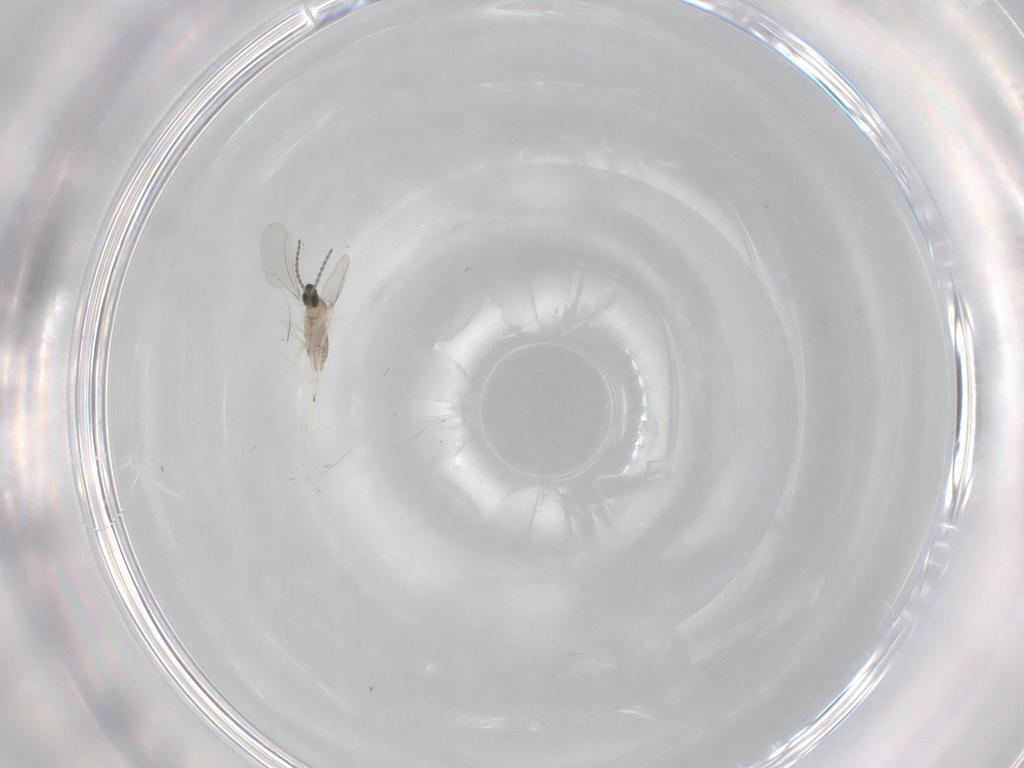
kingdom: Animalia
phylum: Arthropoda
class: Insecta
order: Diptera
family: Cecidomyiidae
